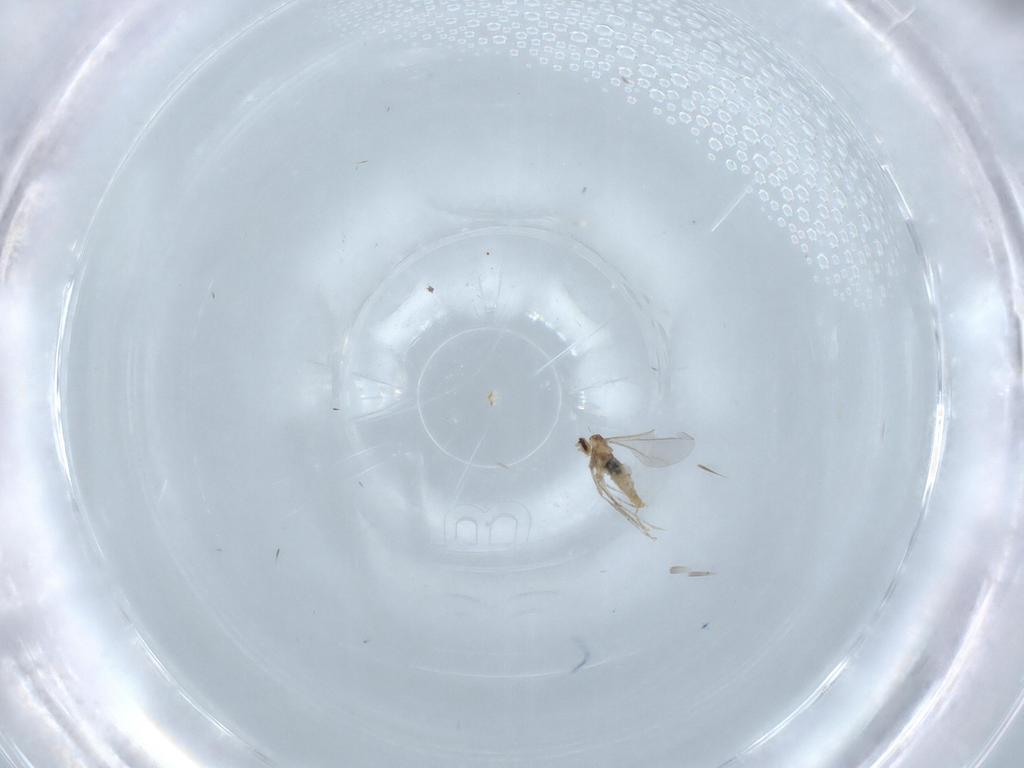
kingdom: Animalia
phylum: Arthropoda
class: Insecta
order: Diptera
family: Cecidomyiidae
